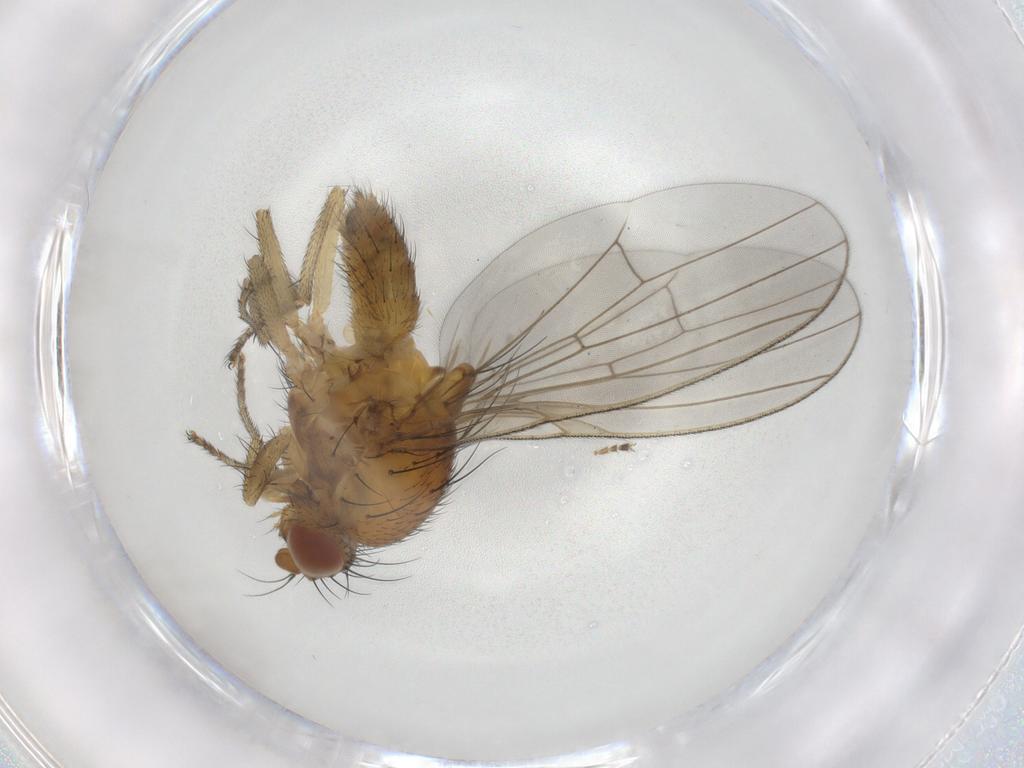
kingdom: Animalia
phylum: Arthropoda
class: Insecta
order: Diptera
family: Lauxaniidae
